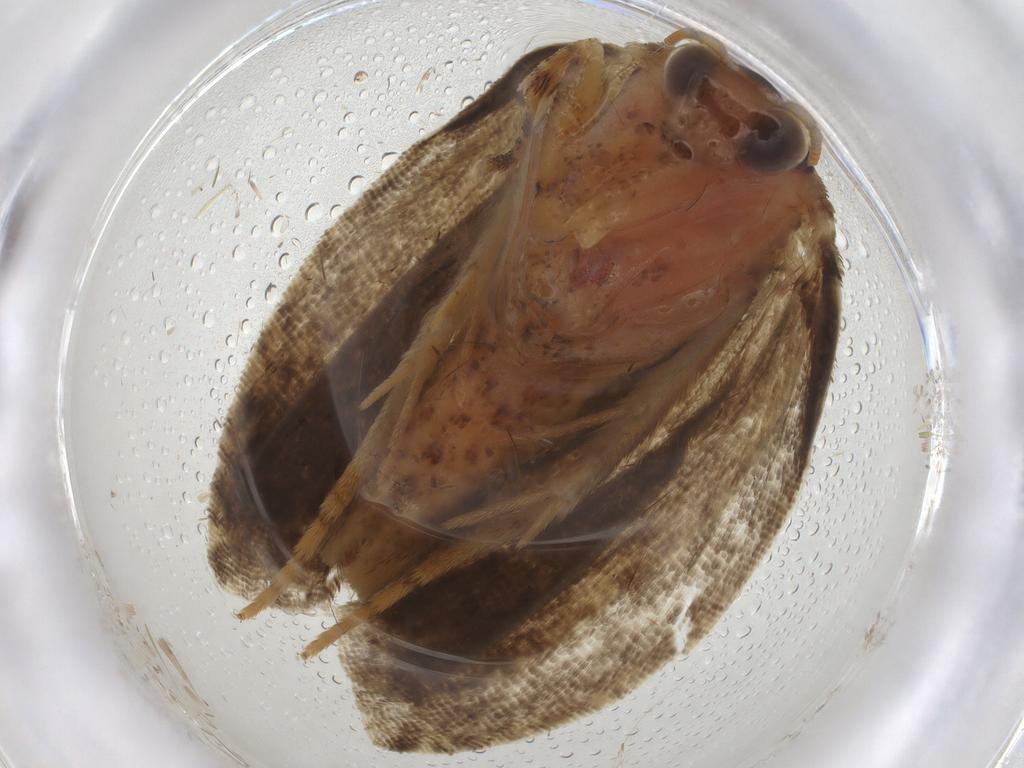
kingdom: Animalia
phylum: Arthropoda
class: Insecta
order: Lepidoptera
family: Tortricidae
